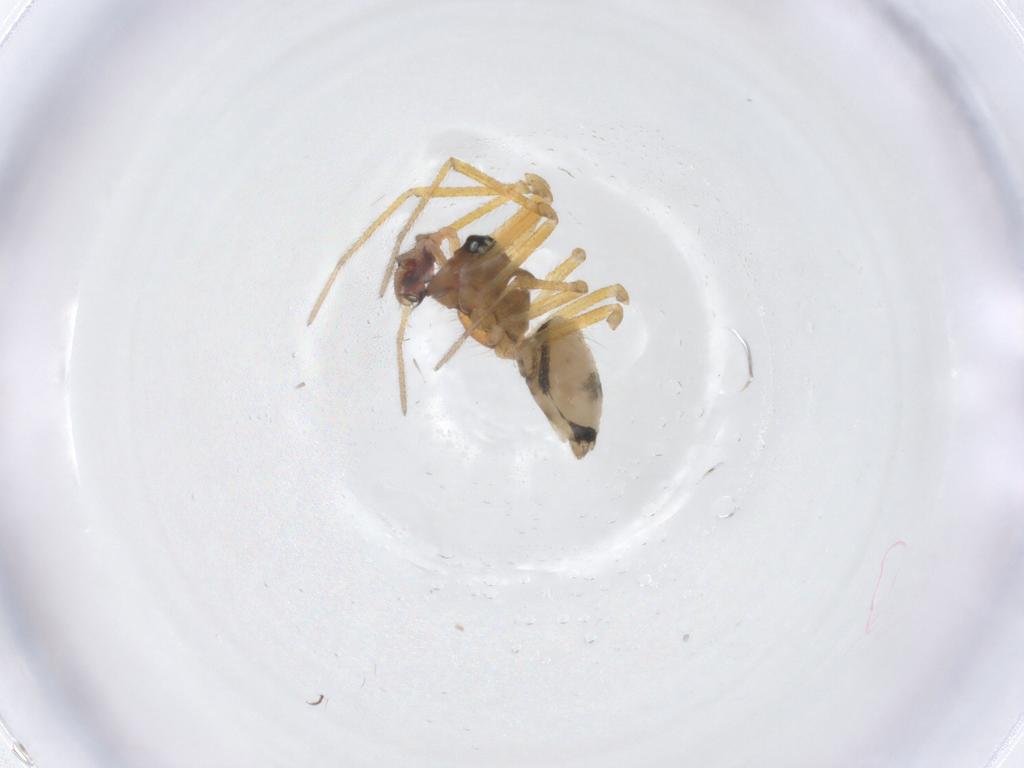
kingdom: Animalia
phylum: Arthropoda
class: Arachnida
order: Araneae
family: Linyphiidae
